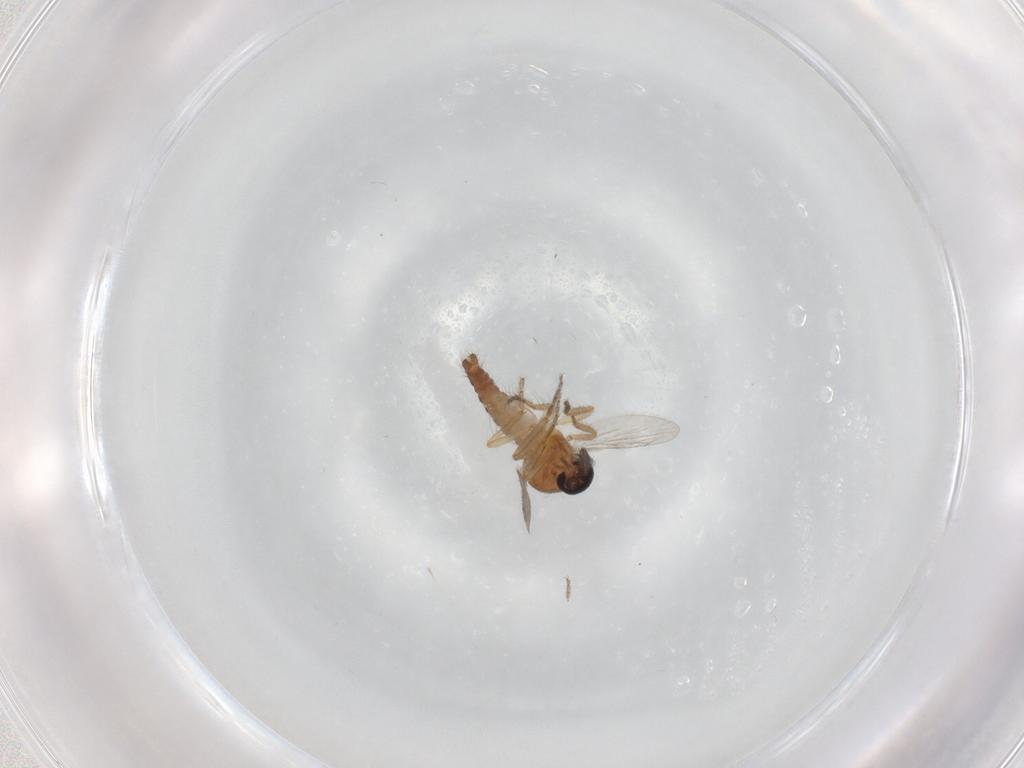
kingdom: Animalia
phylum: Arthropoda
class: Insecta
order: Diptera
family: Ceratopogonidae
